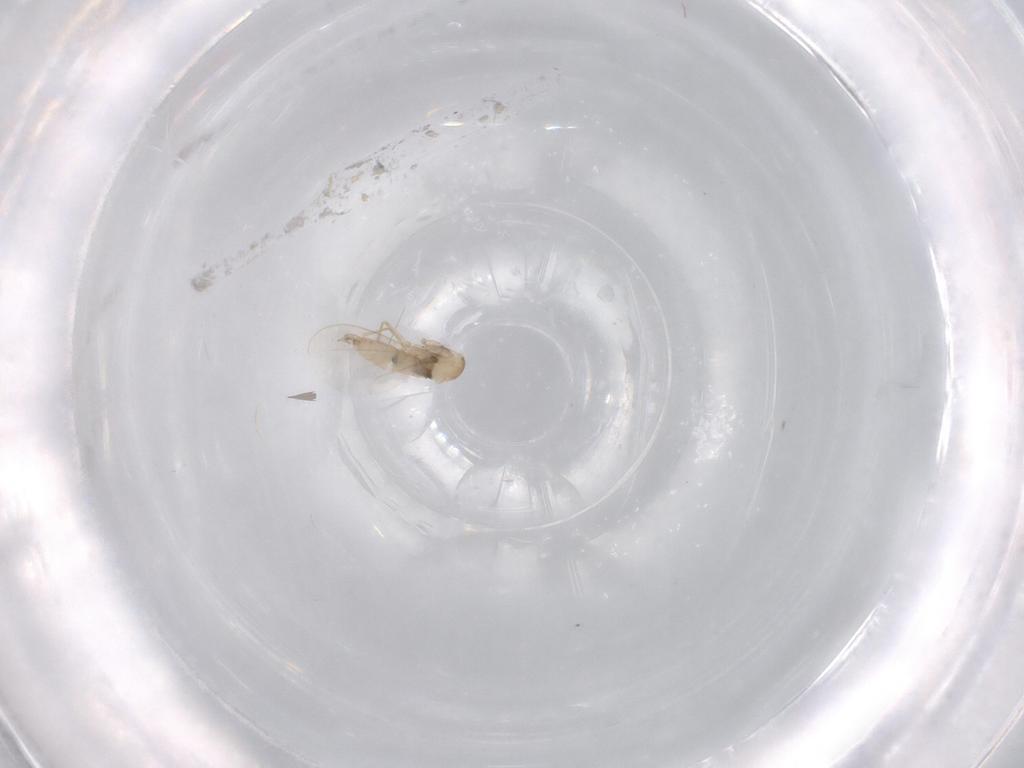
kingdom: Animalia
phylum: Arthropoda
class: Insecta
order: Diptera
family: Cecidomyiidae
